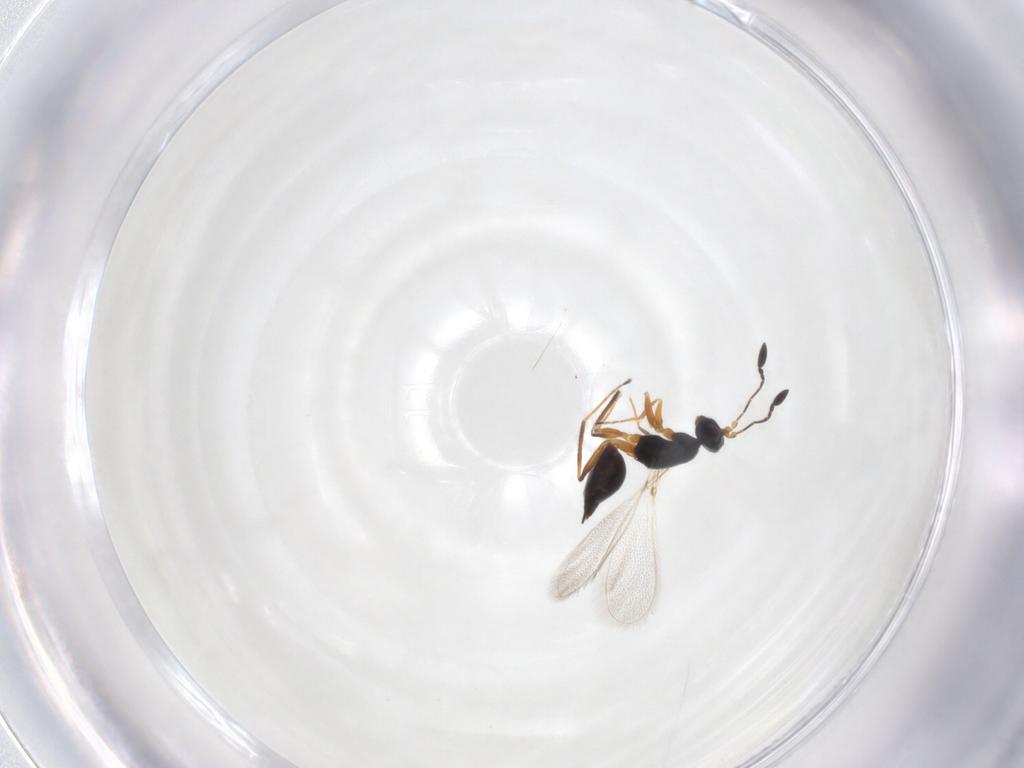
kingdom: Animalia
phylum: Arthropoda
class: Insecta
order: Hymenoptera
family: Mymaridae
